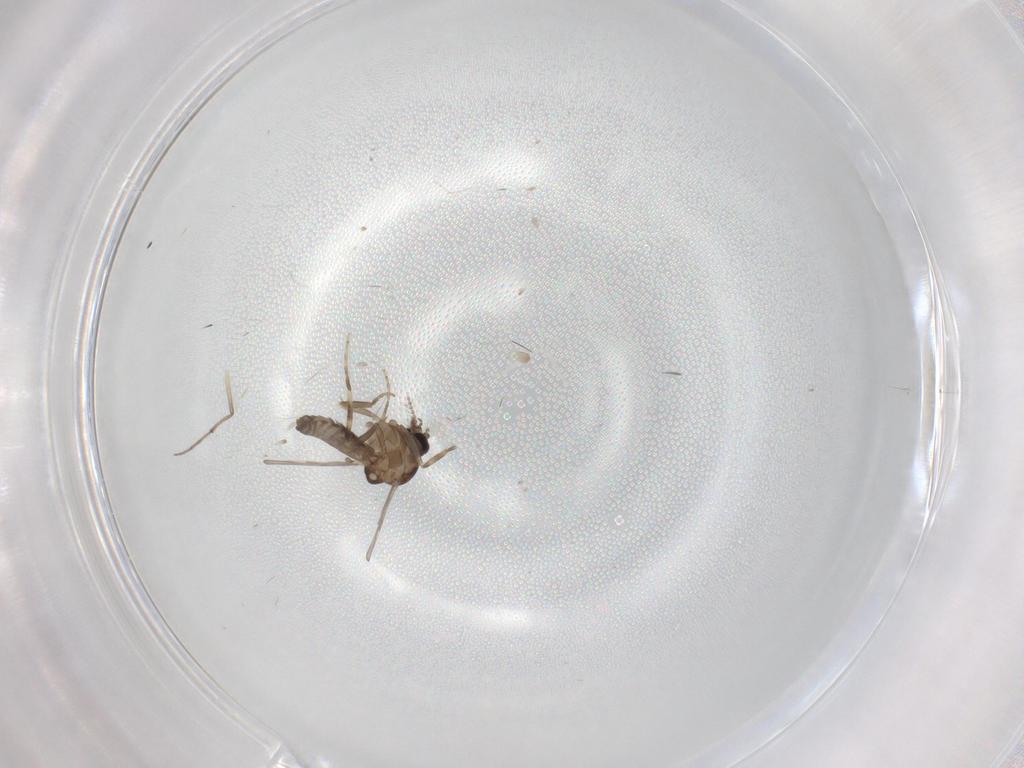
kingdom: Animalia
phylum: Arthropoda
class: Insecta
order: Diptera
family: Ceratopogonidae
